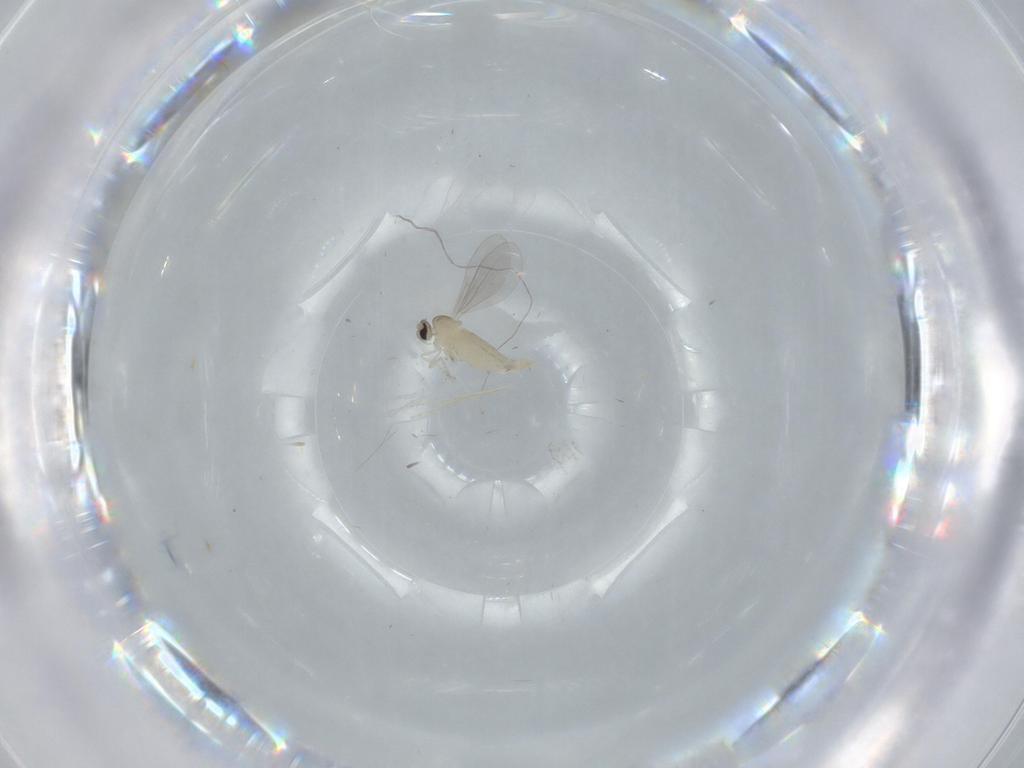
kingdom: Animalia
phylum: Arthropoda
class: Insecta
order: Diptera
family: Cecidomyiidae
